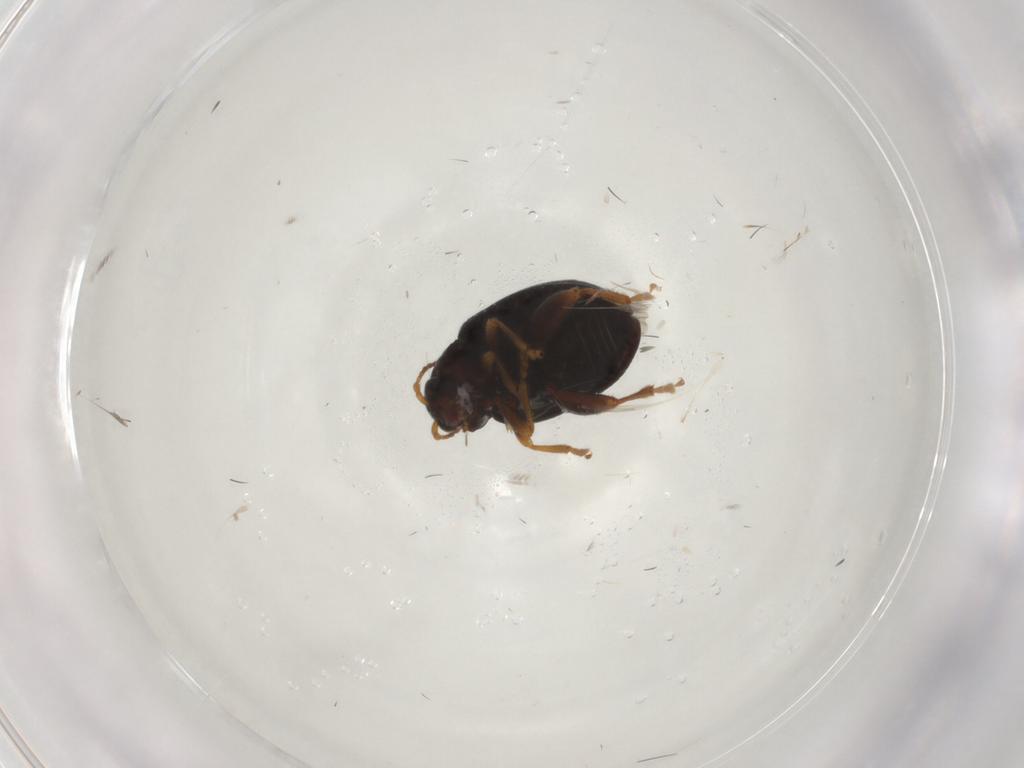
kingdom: Animalia
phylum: Arthropoda
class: Insecta
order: Coleoptera
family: Chrysomelidae
